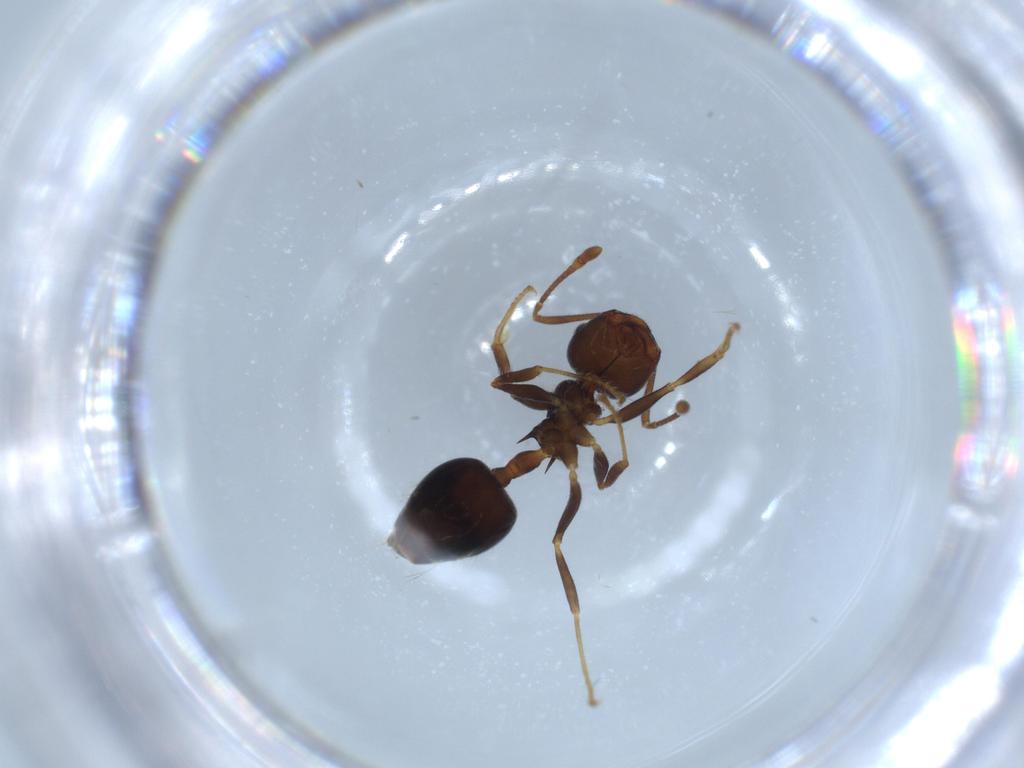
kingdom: Animalia
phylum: Arthropoda
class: Insecta
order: Hymenoptera
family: Formicidae
